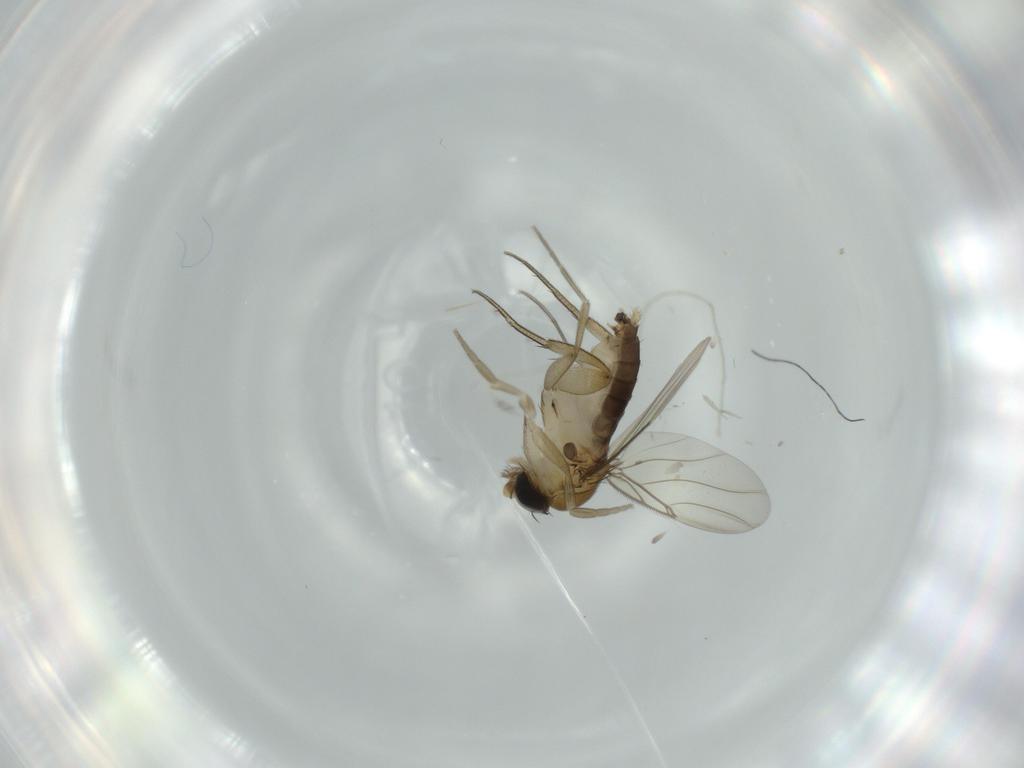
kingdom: Animalia
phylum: Arthropoda
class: Insecta
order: Diptera
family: Phoridae
